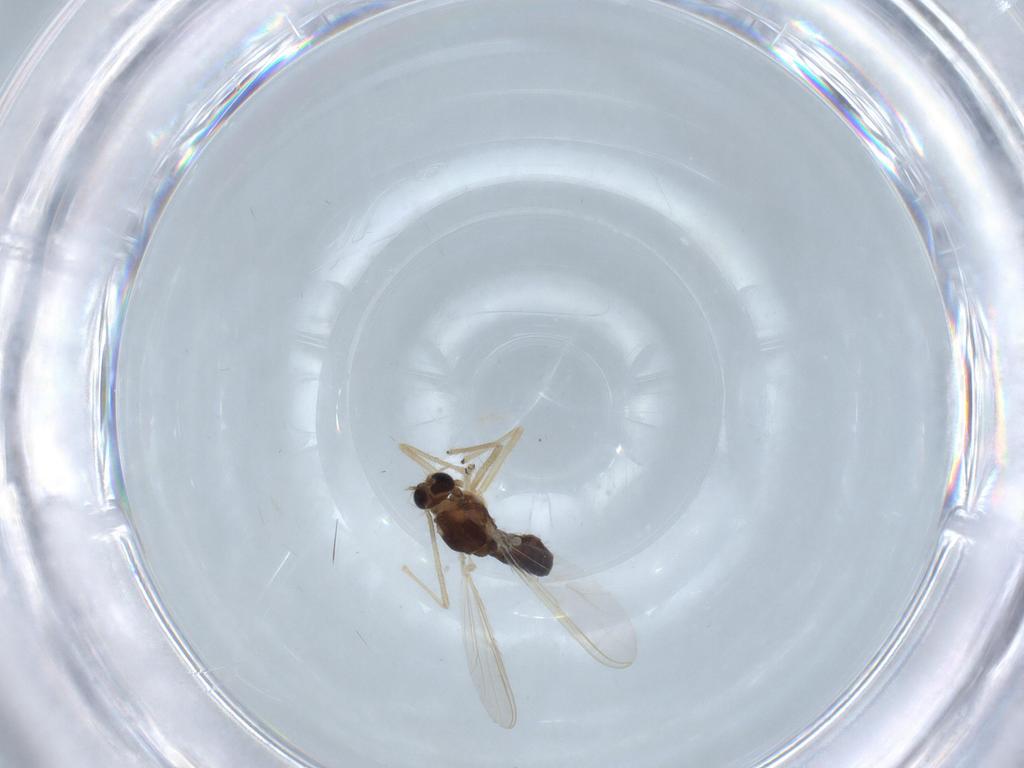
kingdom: Animalia
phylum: Arthropoda
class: Insecta
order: Diptera
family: Chironomidae
